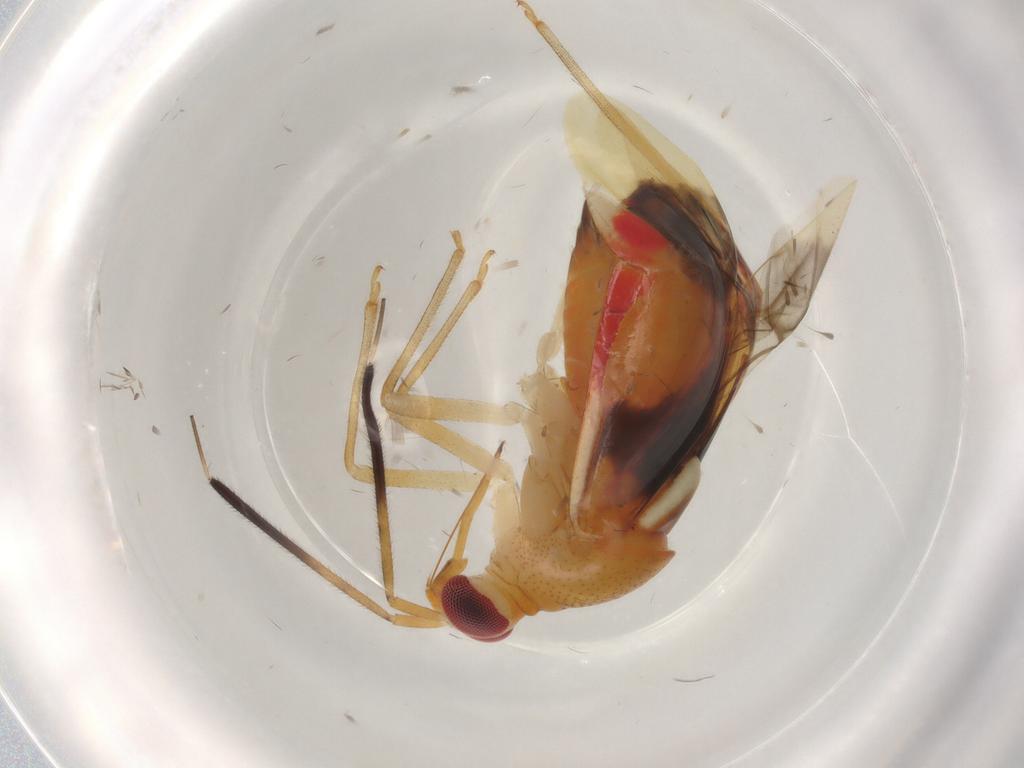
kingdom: Animalia
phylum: Arthropoda
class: Insecta
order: Hemiptera
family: Miridae
